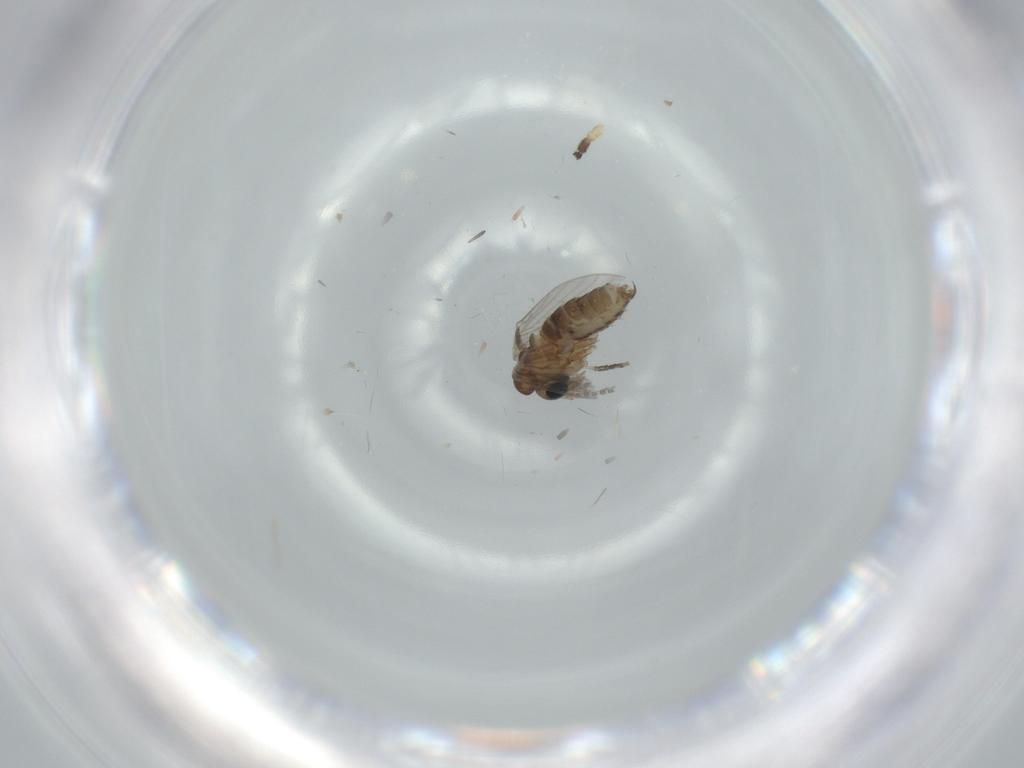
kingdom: Animalia
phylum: Arthropoda
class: Insecta
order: Diptera
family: Psychodidae
